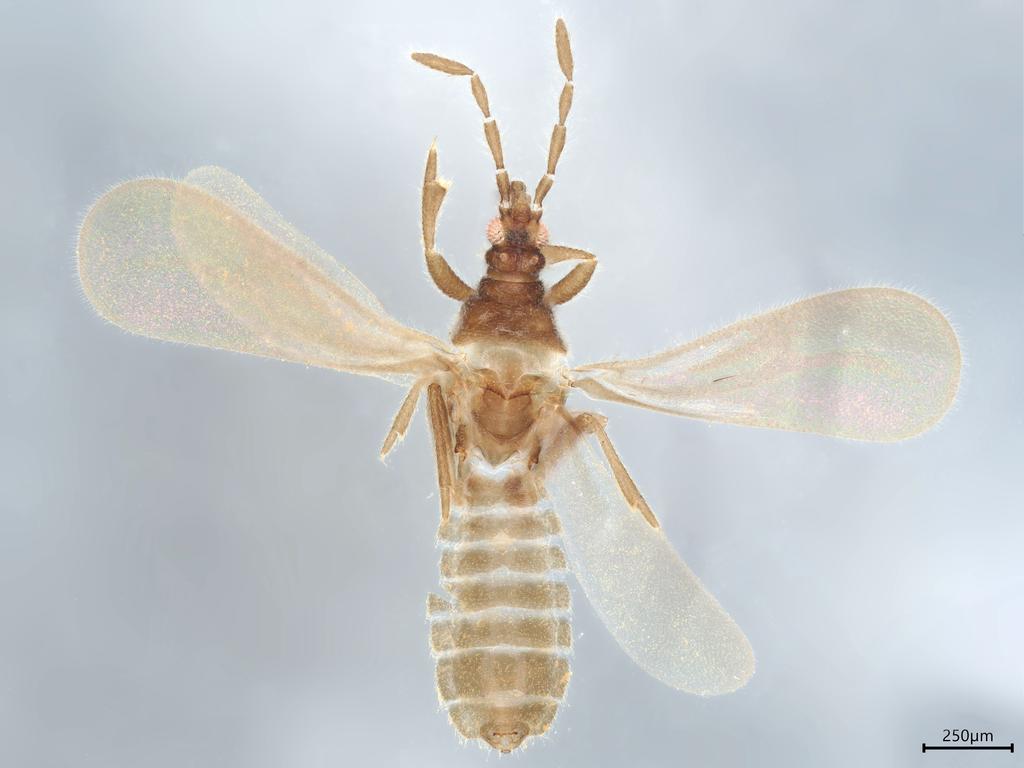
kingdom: Animalia
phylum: Arthropoda
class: Insecta
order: Hemiptera
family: Enicocephalidae
